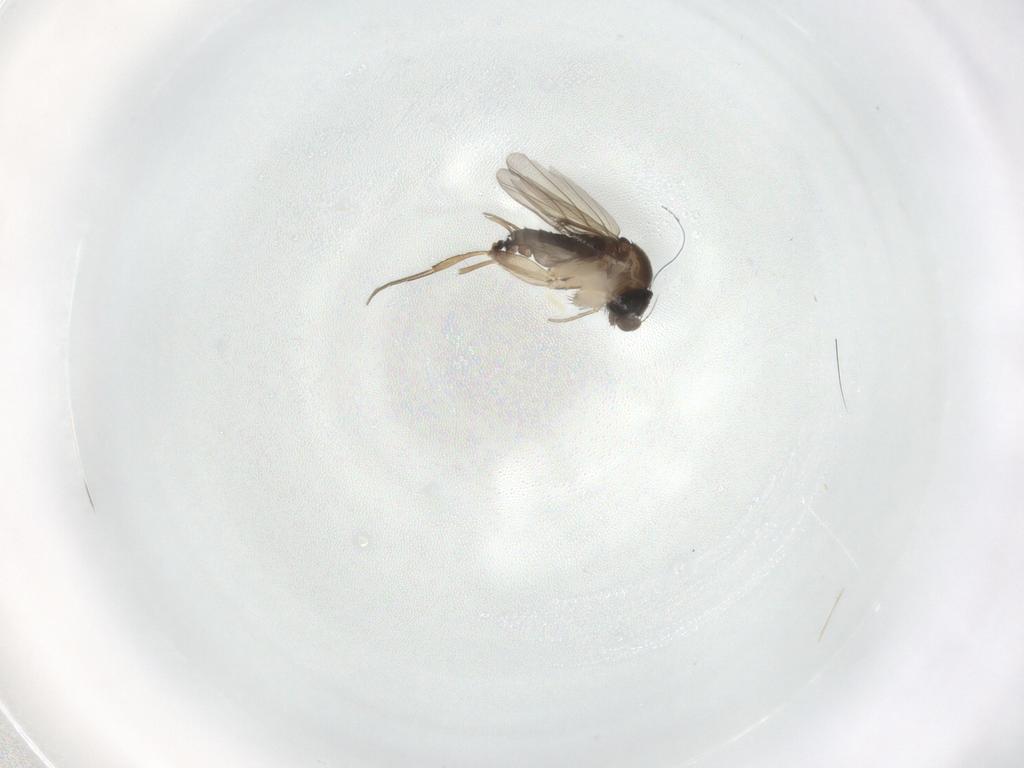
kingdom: Animalia
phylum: Arthropoda
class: Insecta
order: Diptera
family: Phoridae
